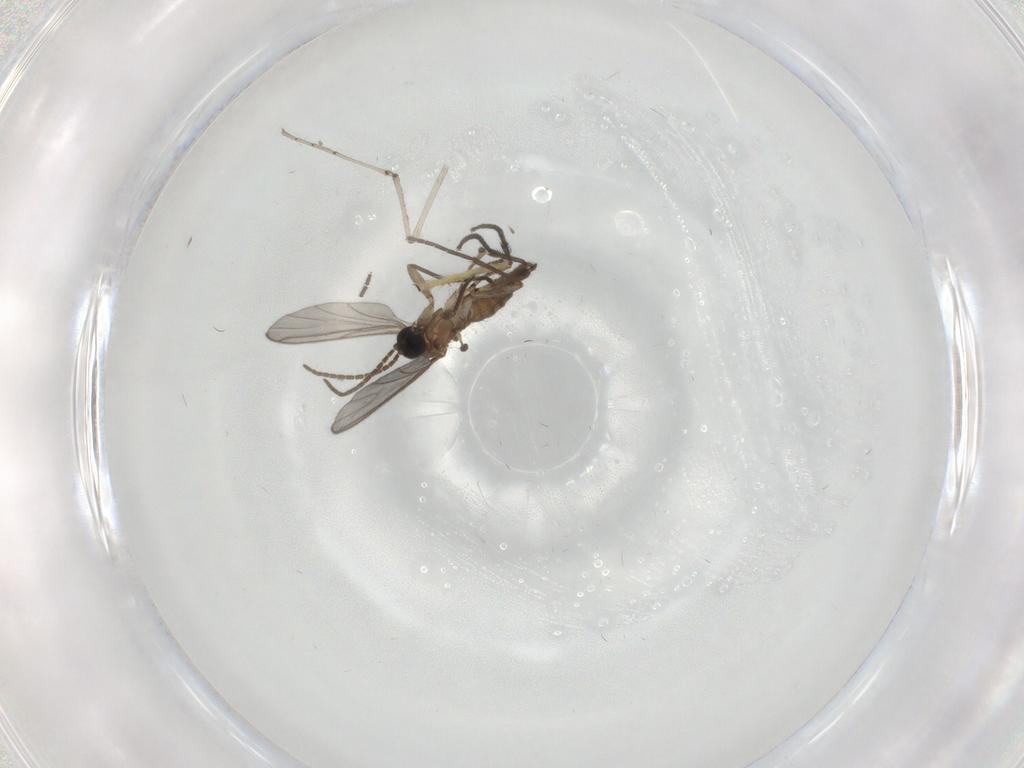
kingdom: Animalia
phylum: Arthropoda
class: Insecta
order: Diptera
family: Sciaridae
